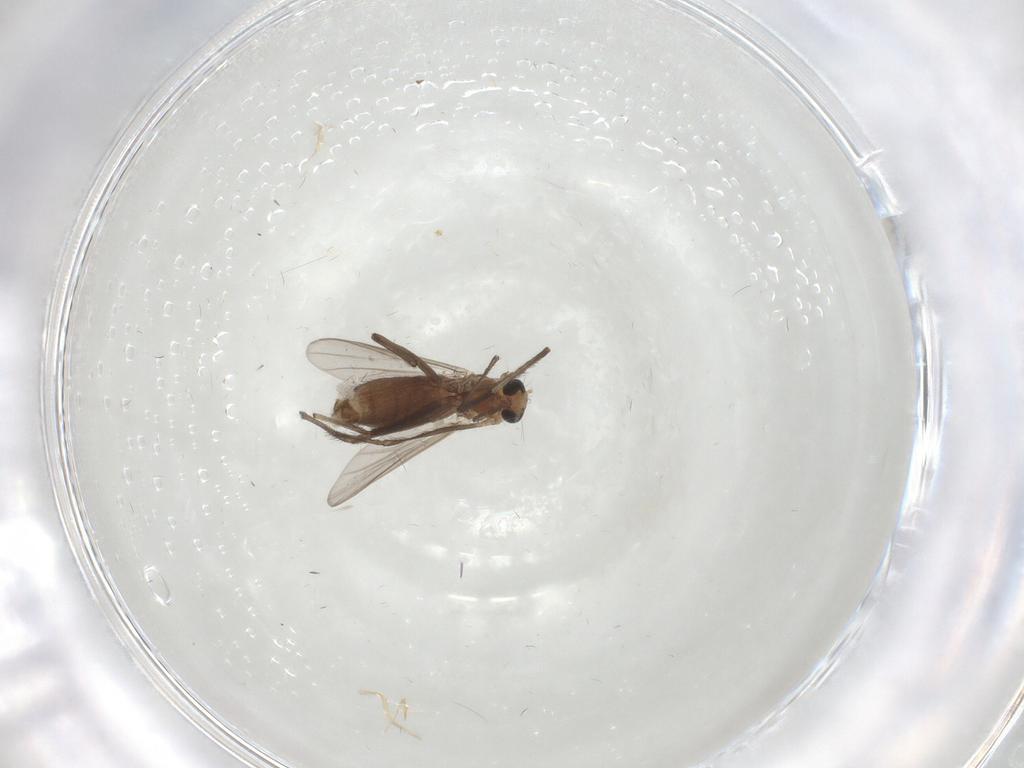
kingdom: Animalia
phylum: Arthropoda
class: Insecta
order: Diptera
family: Chironomidae
